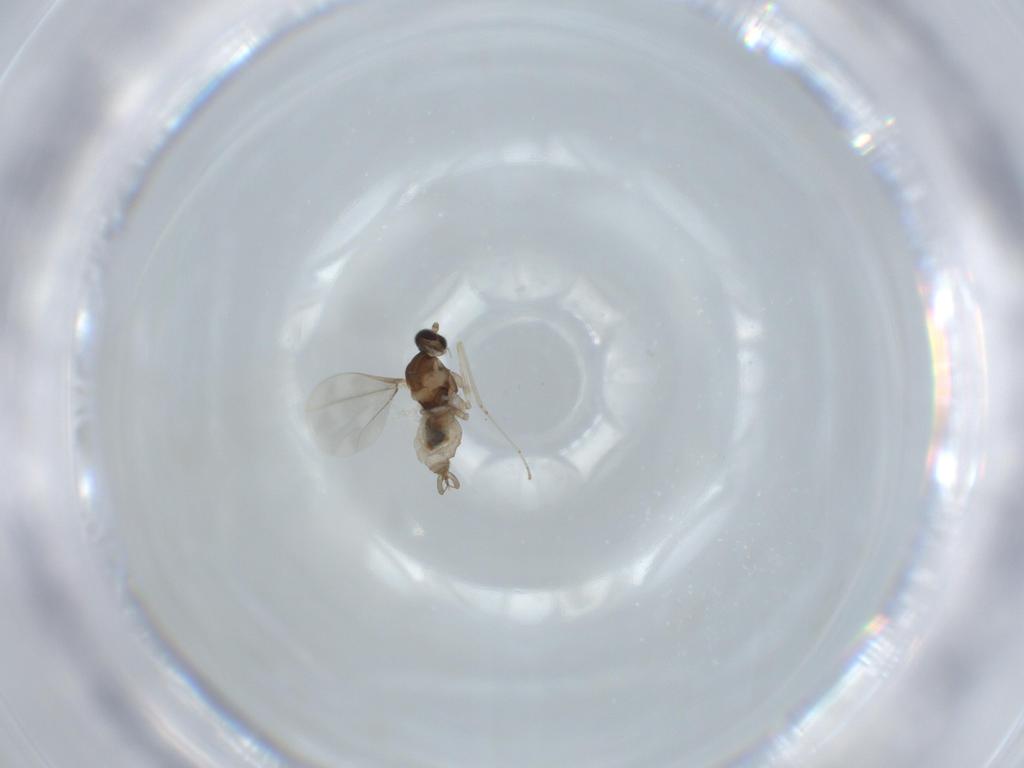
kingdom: Animalia
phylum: Arthropoda
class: Insecta
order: Diptera
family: Cecidomyiidae
